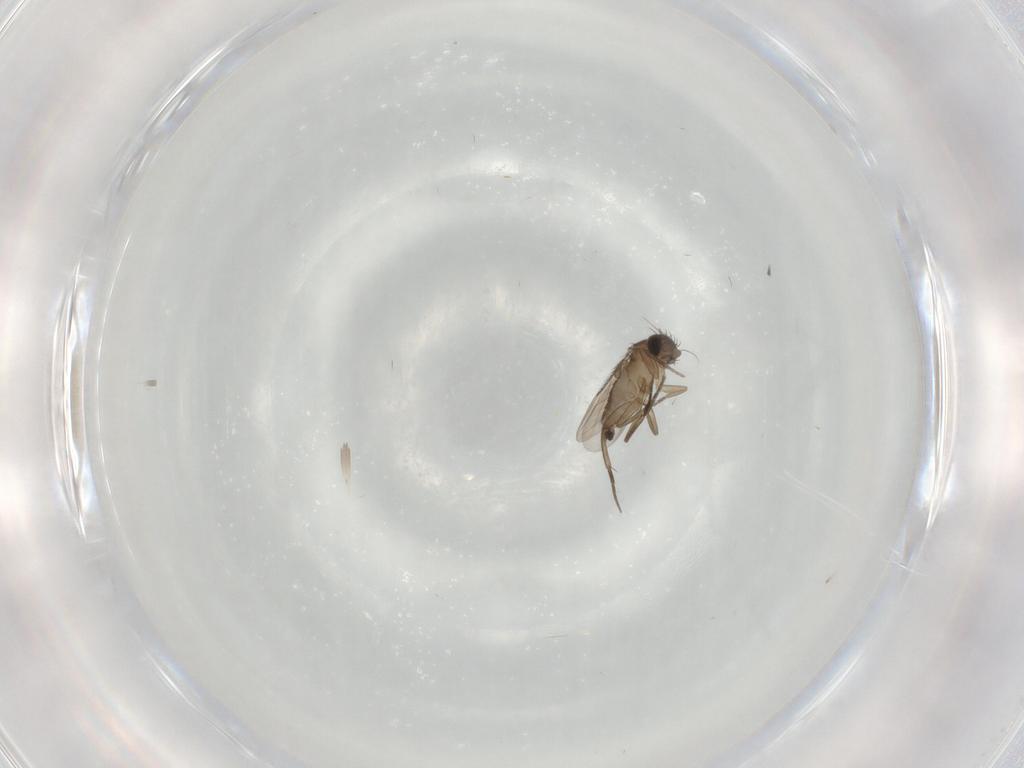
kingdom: Animalia
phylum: Arthropoda
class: Insecta
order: Diptera
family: Phoridae
